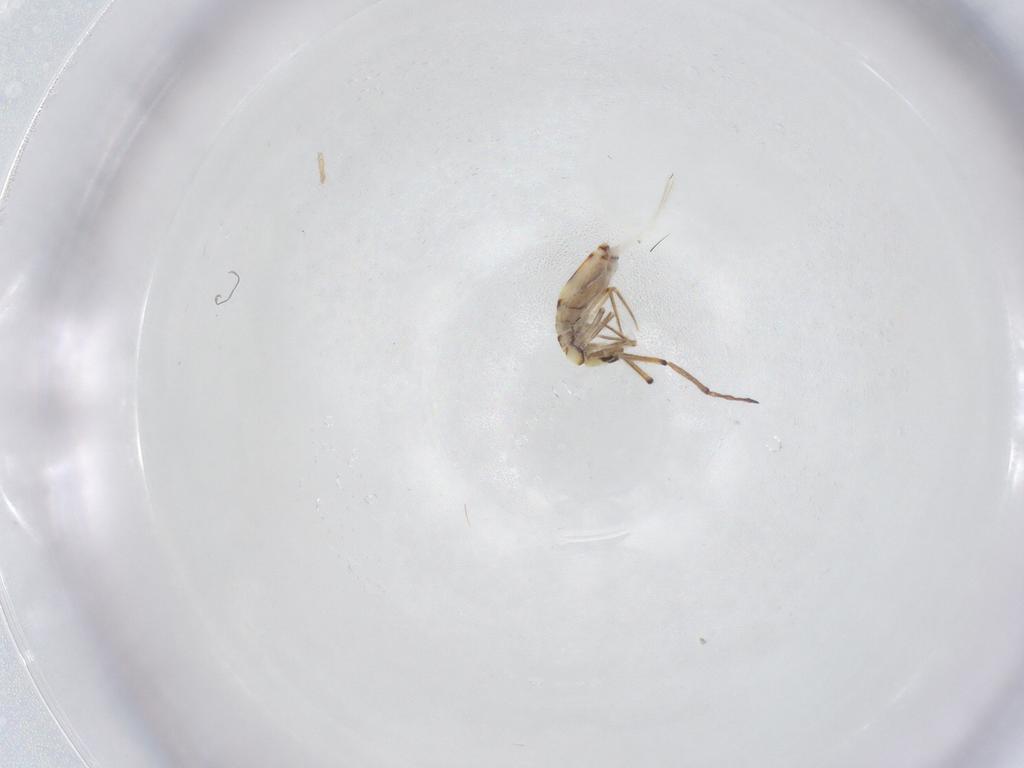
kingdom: Animalia
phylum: Arthropoda
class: Collembola
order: Entomobryomorpha
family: Paronellidae
